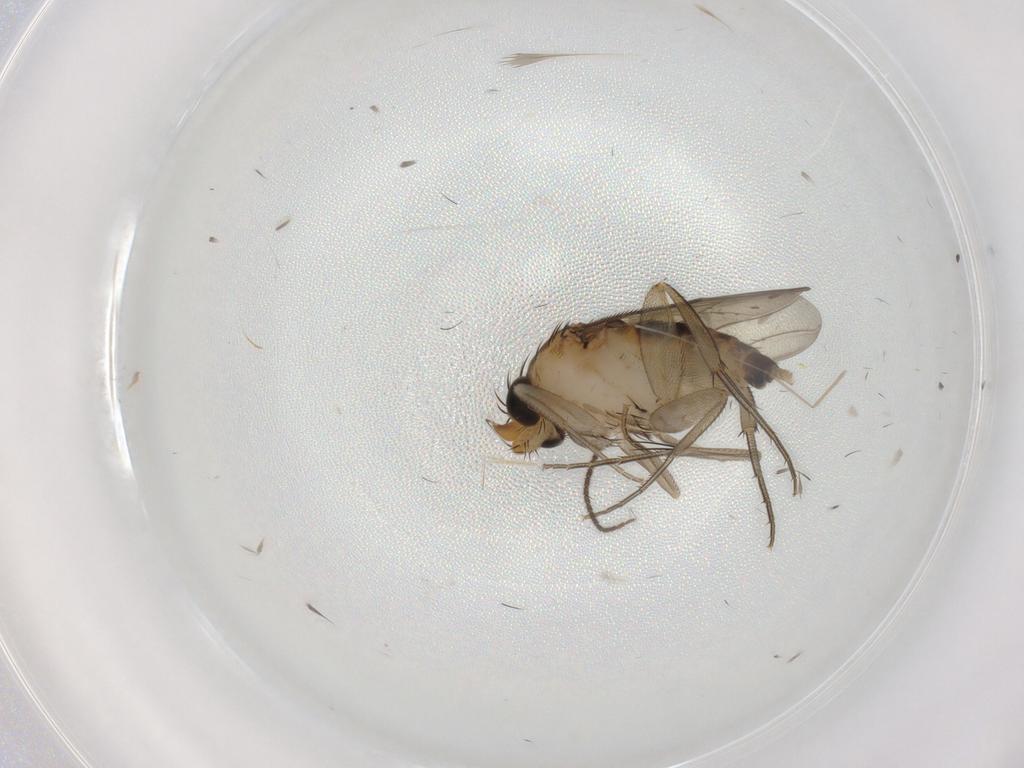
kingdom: Animalia
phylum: Arthropoda
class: Insecta
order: Diptera
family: Phoridae
